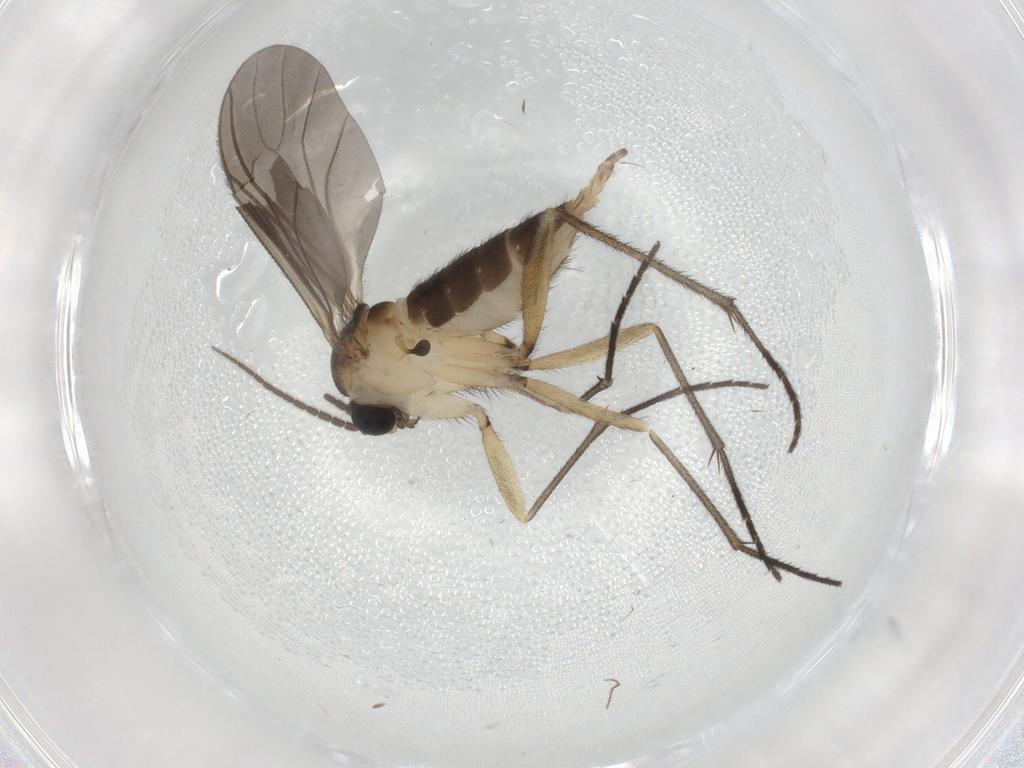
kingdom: Animalia
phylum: Arthropoda
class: Insecta
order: Diptera
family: Sciaridae
